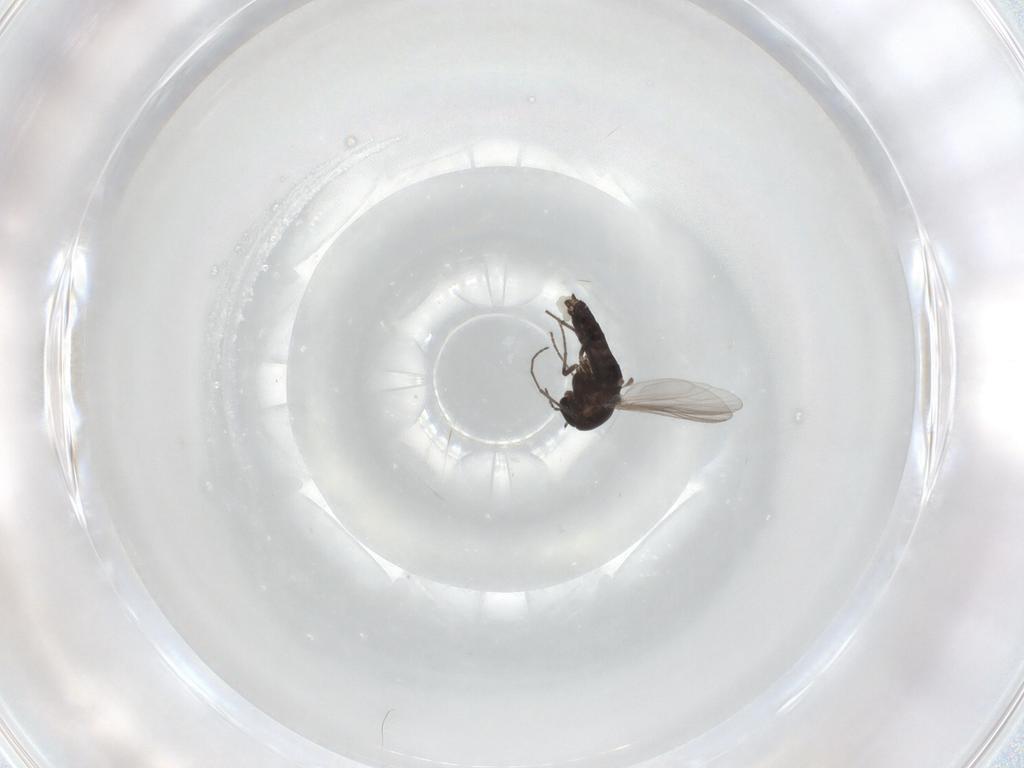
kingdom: Animalia
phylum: Arthropoda
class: Insecta
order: Diptera
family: Chironomidae
